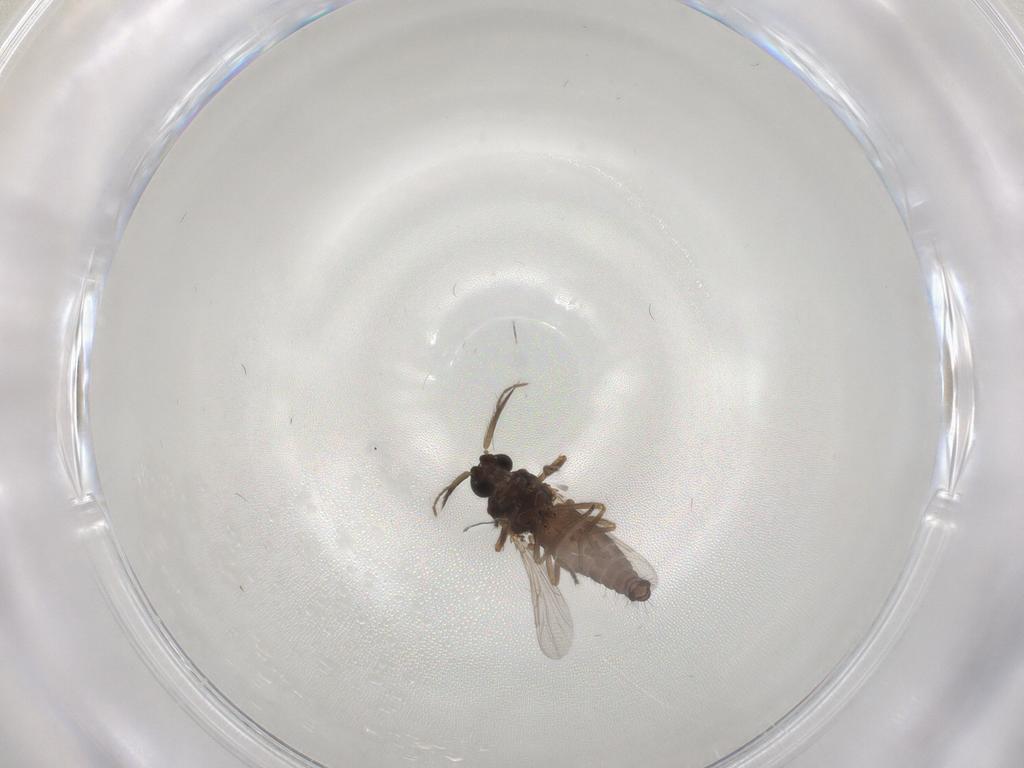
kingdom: Animalia
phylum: Arthropoda
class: Insecta
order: Diptera
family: Ceratopogonidae
